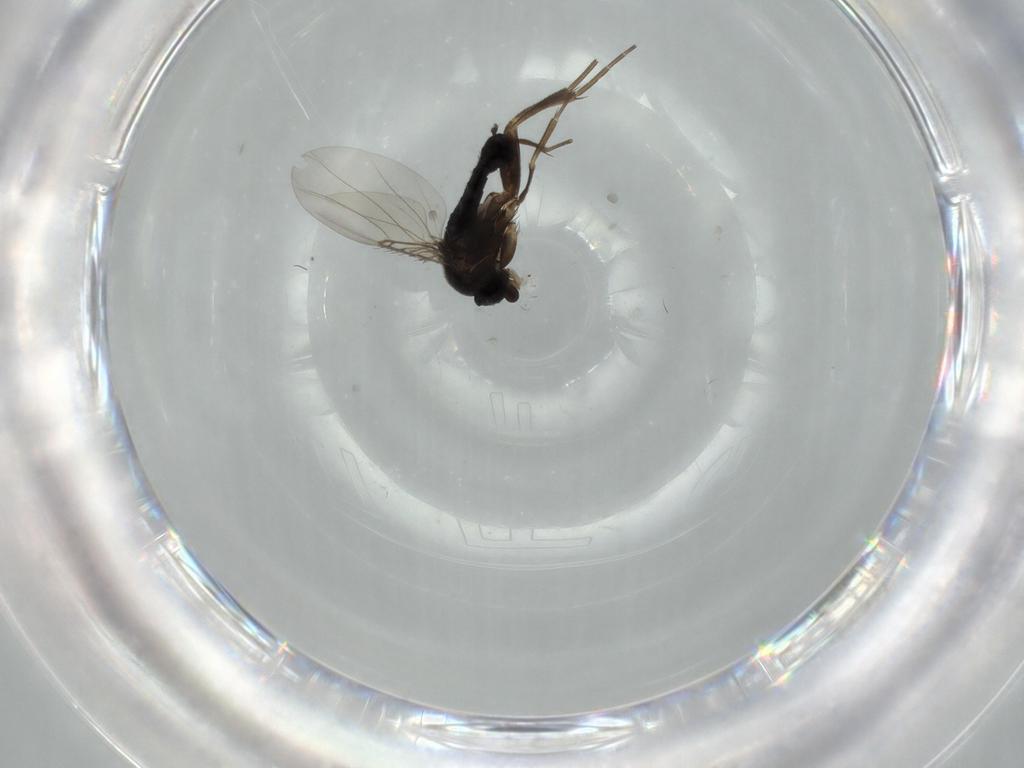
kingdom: Animalia
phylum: Arthropoda
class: Insecta
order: Diptera
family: Phoridae
